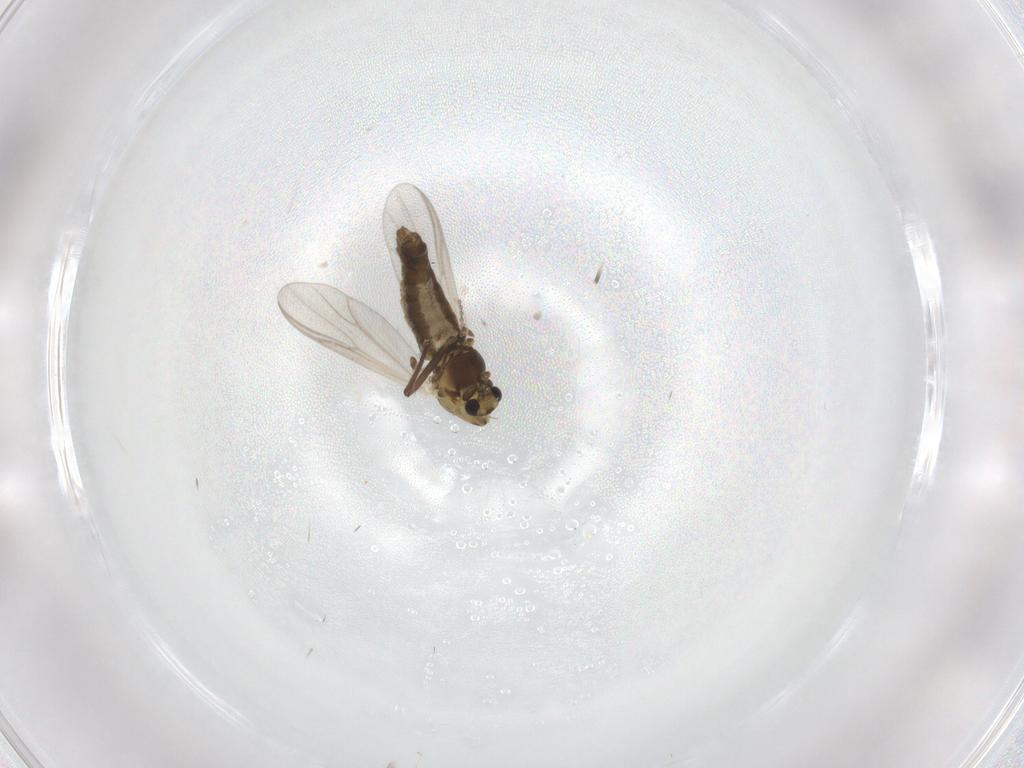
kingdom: Animalia
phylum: Arthropoda
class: Insecta
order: Diptera
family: Chironomidae
